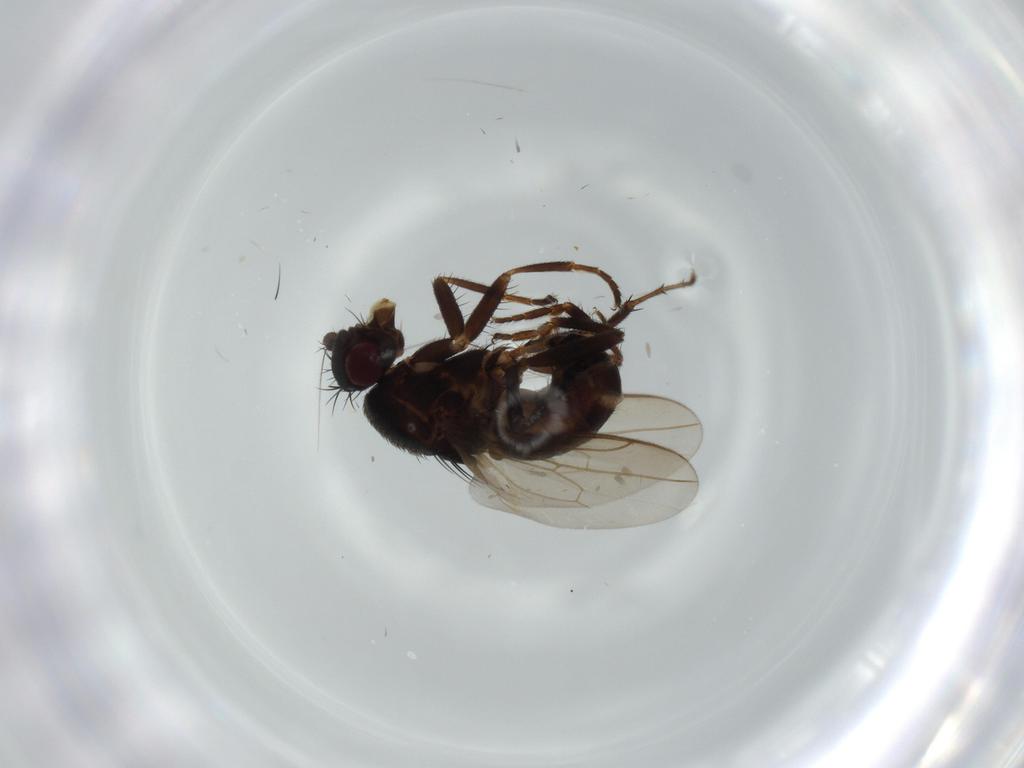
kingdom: Animalia
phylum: Arthropoda
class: Insecta
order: Diptera
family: Sphaeroceridae
